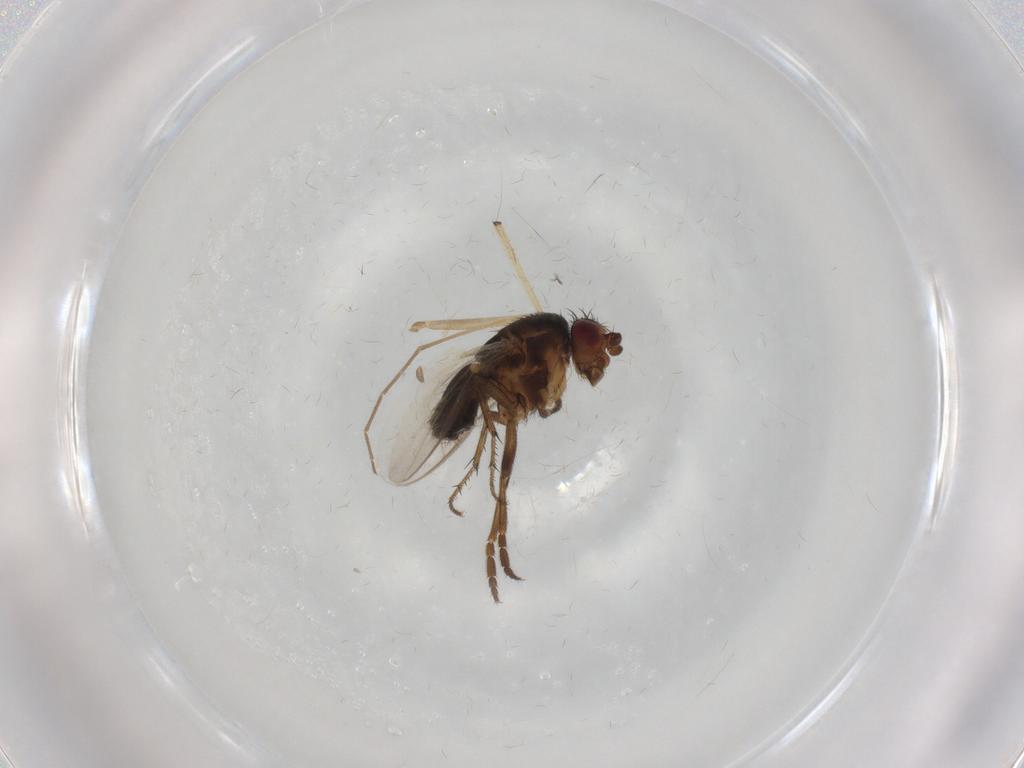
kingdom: Animalia
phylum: Arthropoda
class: Insecta
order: Diptera
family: Sphaeroceridae
